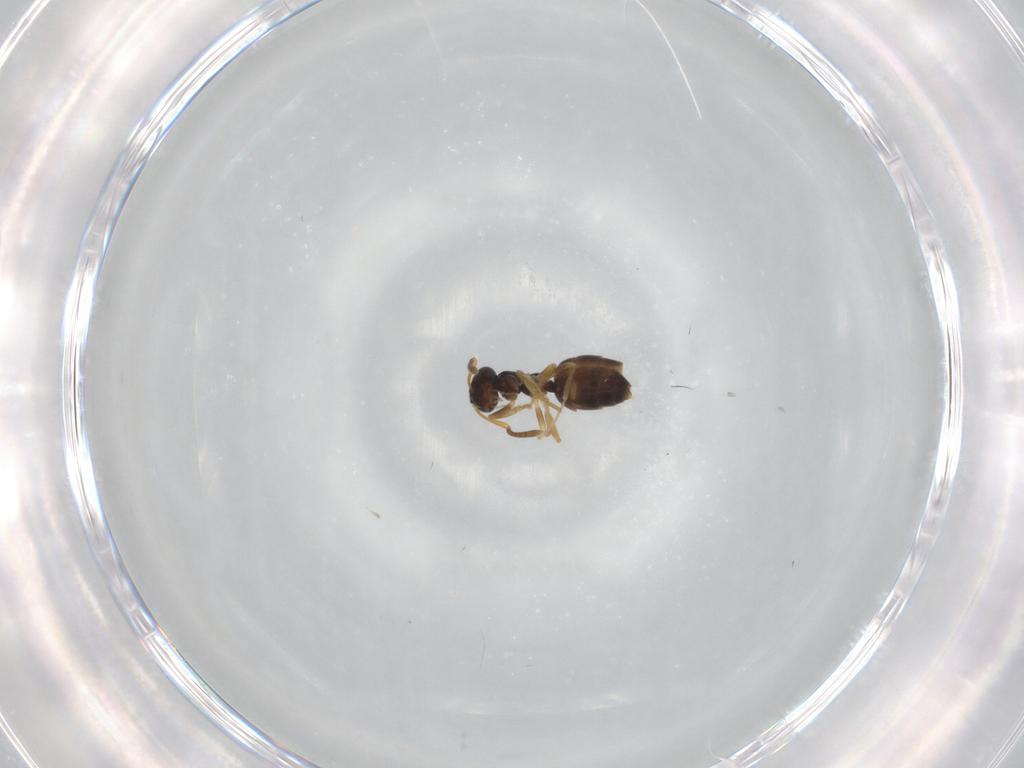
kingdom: Animalia
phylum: Arthropoda
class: Insecta
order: Hymenoptera
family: Formicidae
